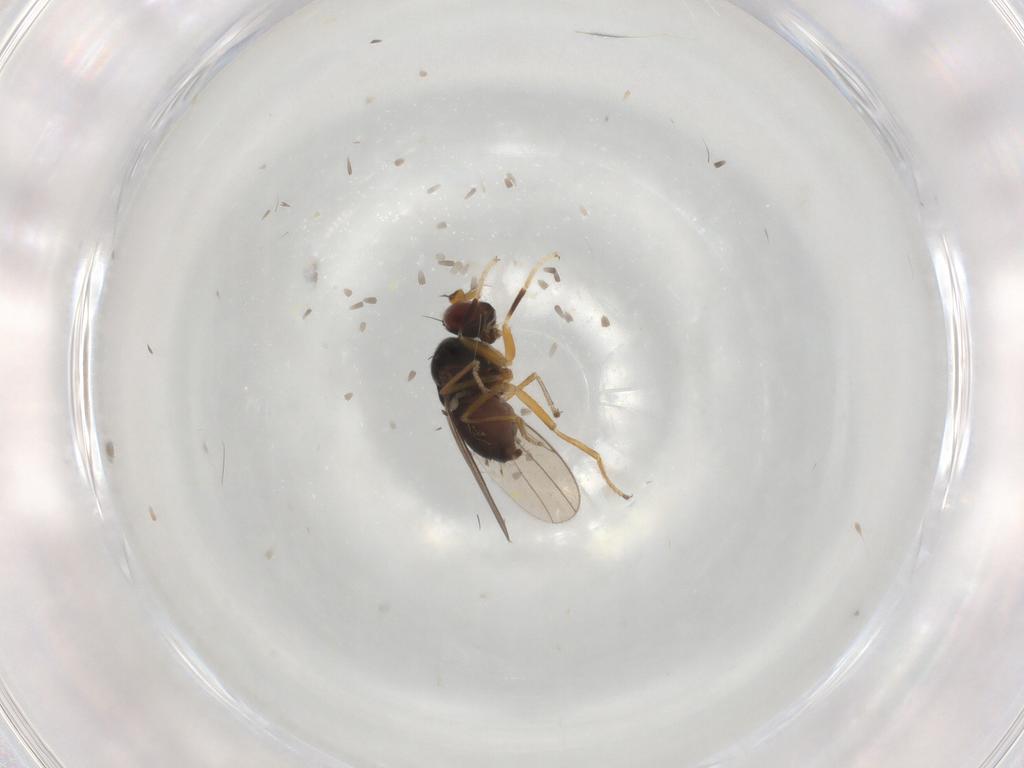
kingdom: Animalia
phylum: Arthropoda
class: Insecta
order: Diptera
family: Ephydridae
